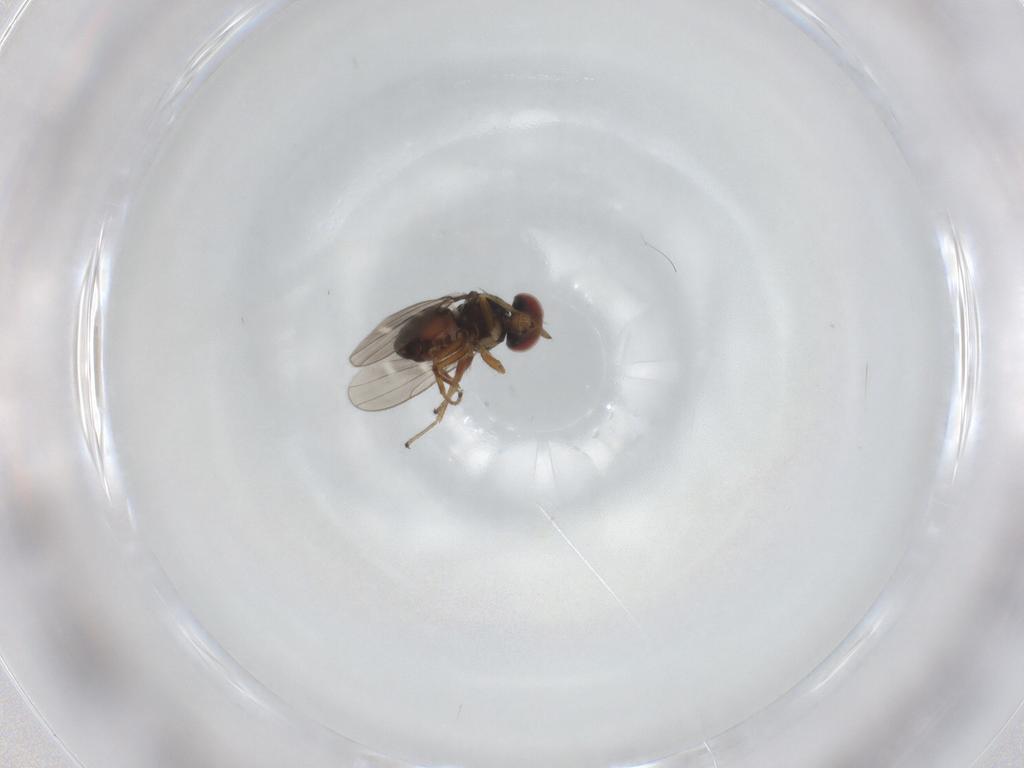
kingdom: Animalia
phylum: Arthropoda
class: Insecta
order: Diptera
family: Ephydridae
